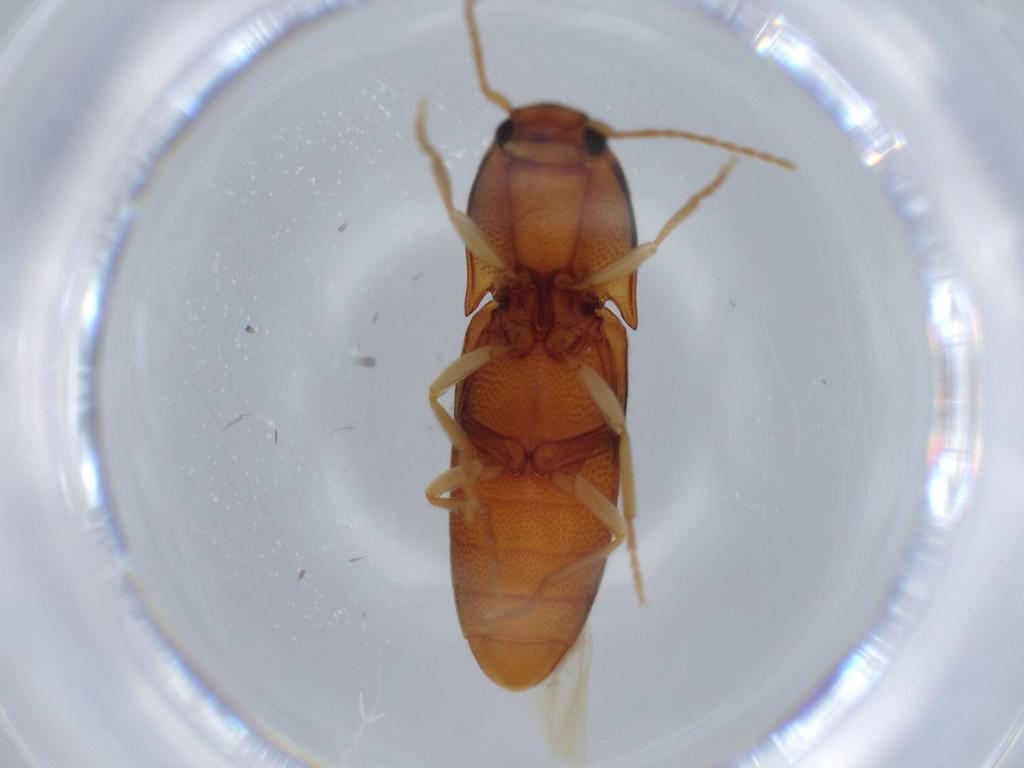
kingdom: Animalia
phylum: Arthropoda
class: Insecta
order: Coleoptera
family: Elateridae
